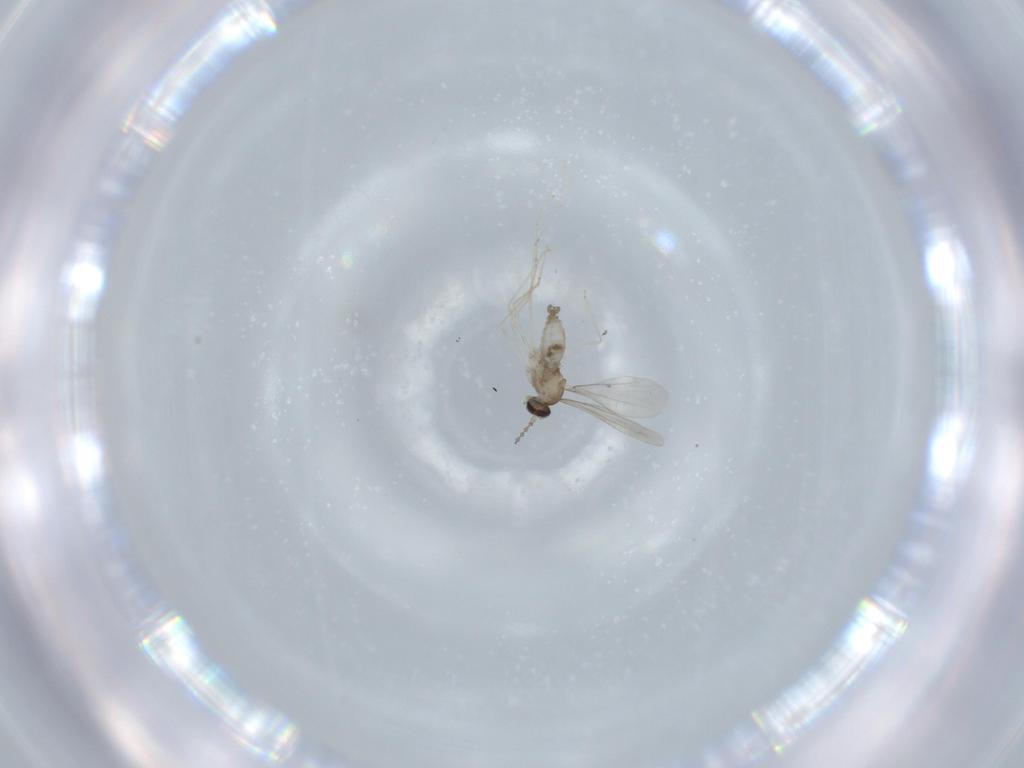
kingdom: Animalia
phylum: Arthropoda
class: Insecta
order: Diptera
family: Cecidomyiidae
